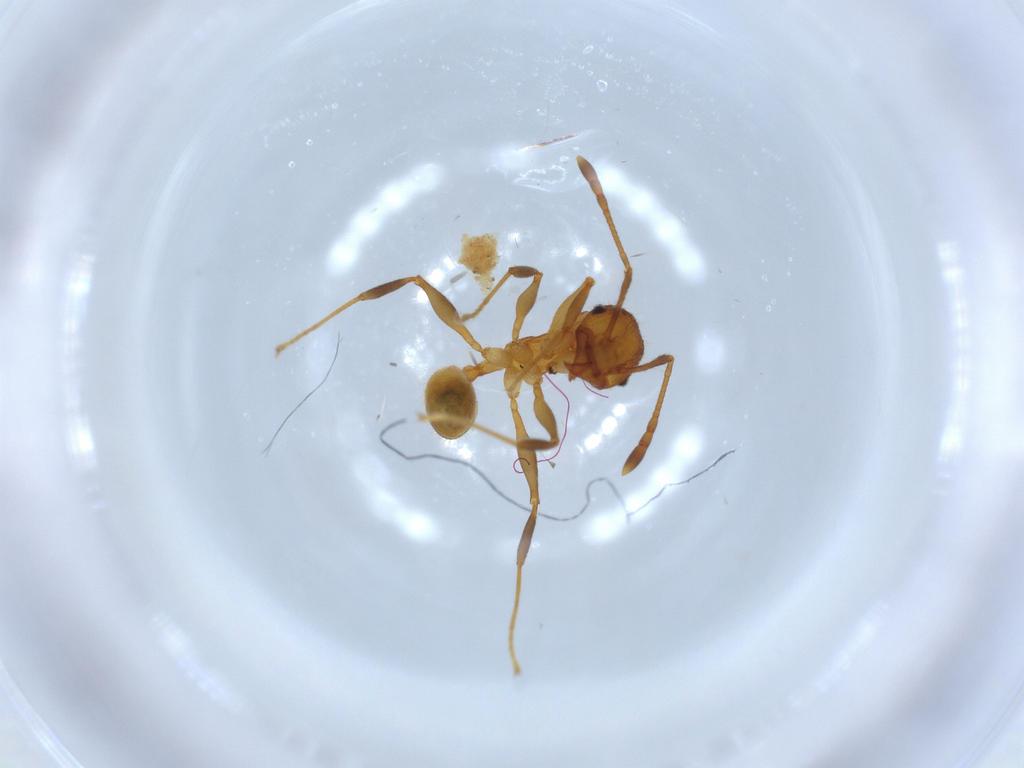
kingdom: Animalia
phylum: Arthropoda
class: Insecta
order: Hymenoptera
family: Formicidae
